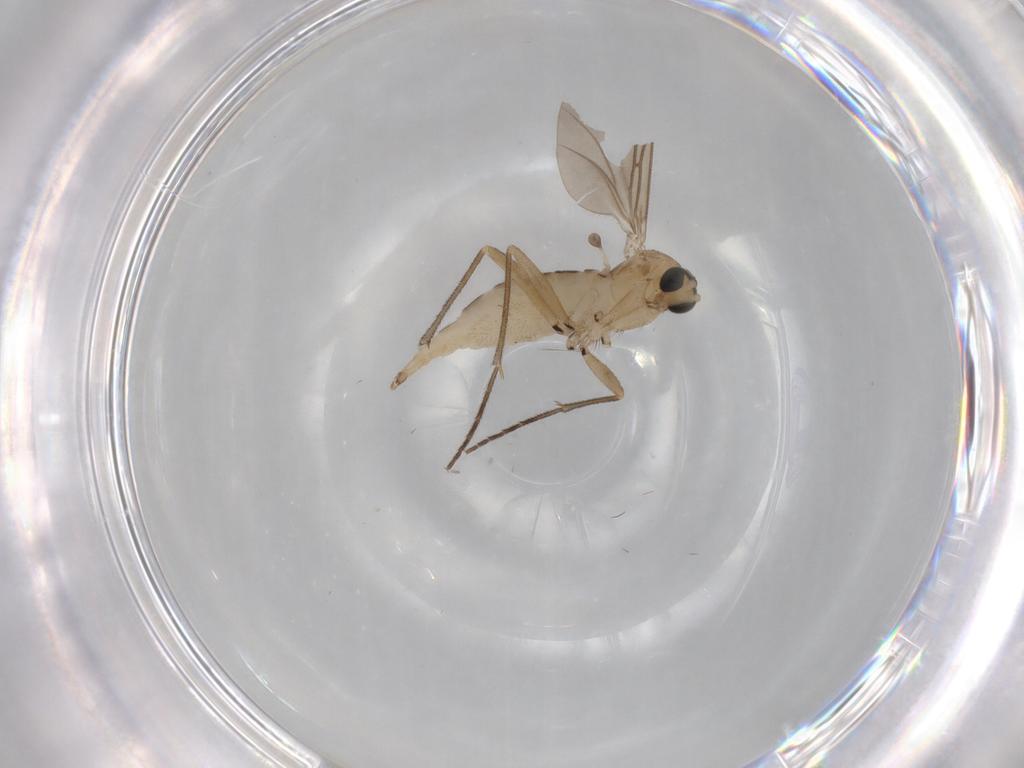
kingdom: Animalia
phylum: Arthropoda
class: Insecta
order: Diptera
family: Sciaridae
